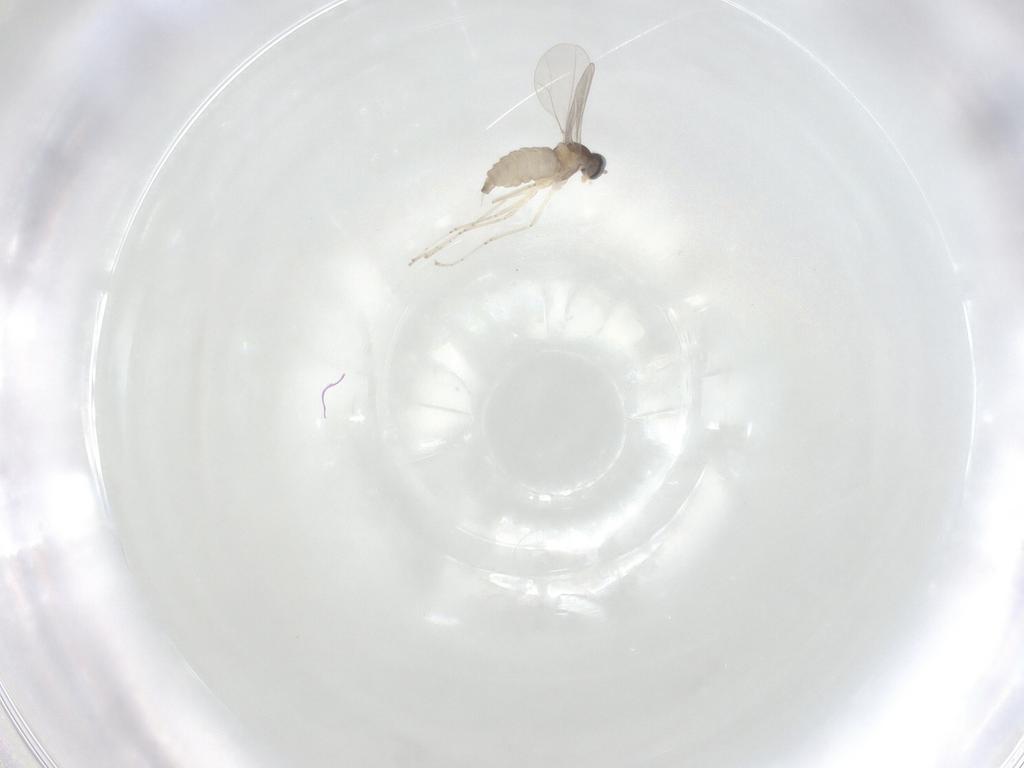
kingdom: Animalia
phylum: Arthropoda
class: Insecta
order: Diptera
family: Cecidomyiidae
